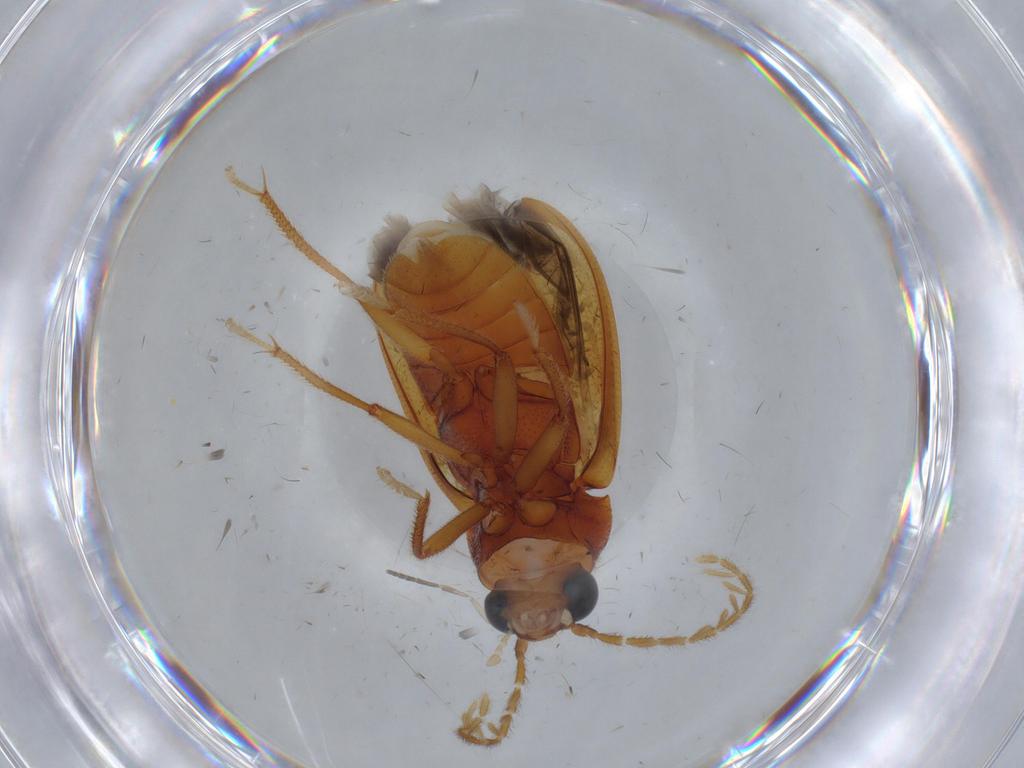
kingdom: Animalia
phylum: Arthropoda
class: Insecta
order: Coleoptera
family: Ptilodactylidae
